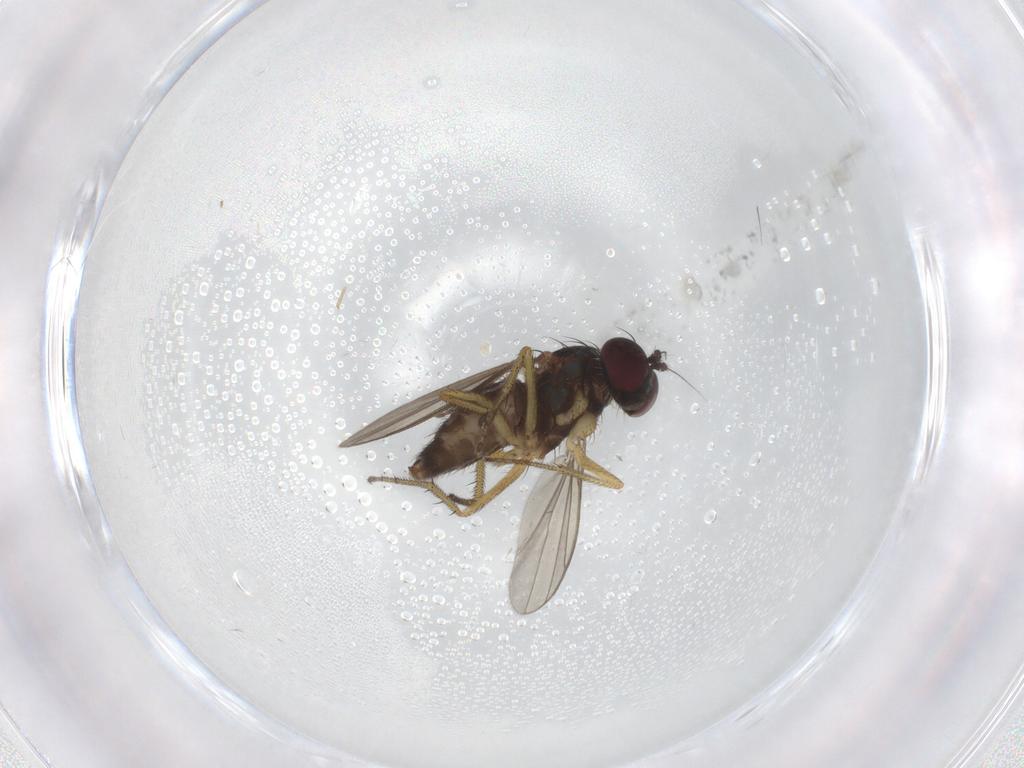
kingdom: Animalia
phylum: Arthropoda
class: Insecta
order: Diptera
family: Dolichopodidae
